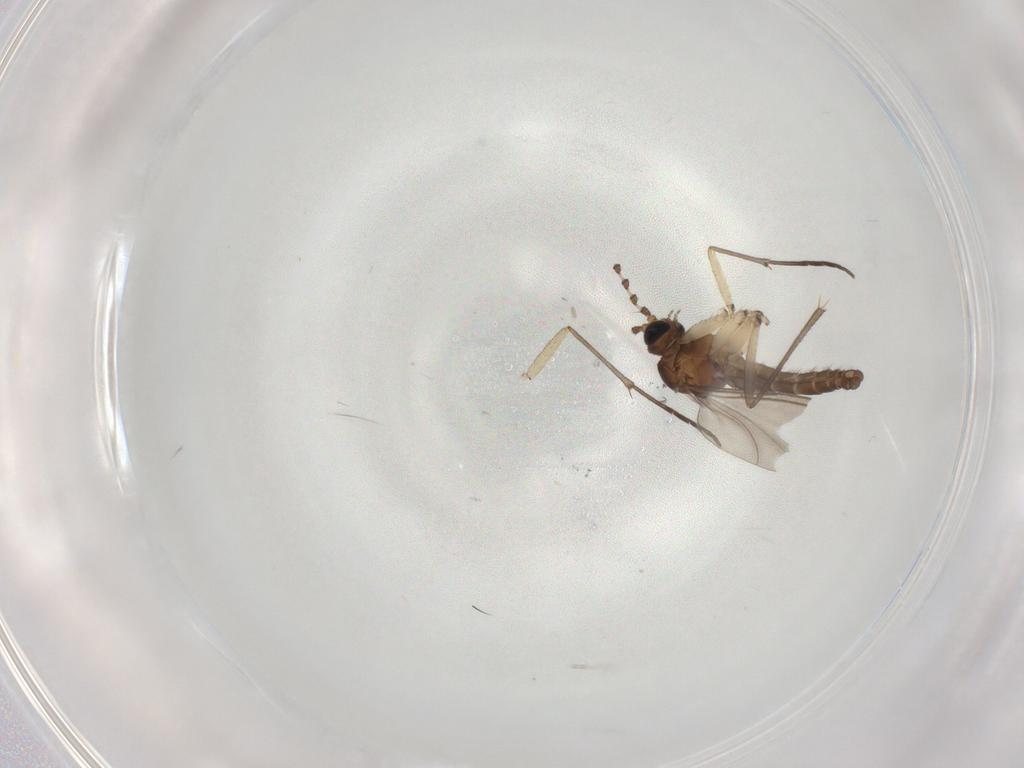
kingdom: Animalia
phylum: Arthropoda
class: Insecta
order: Diptera
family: Sciaridae
